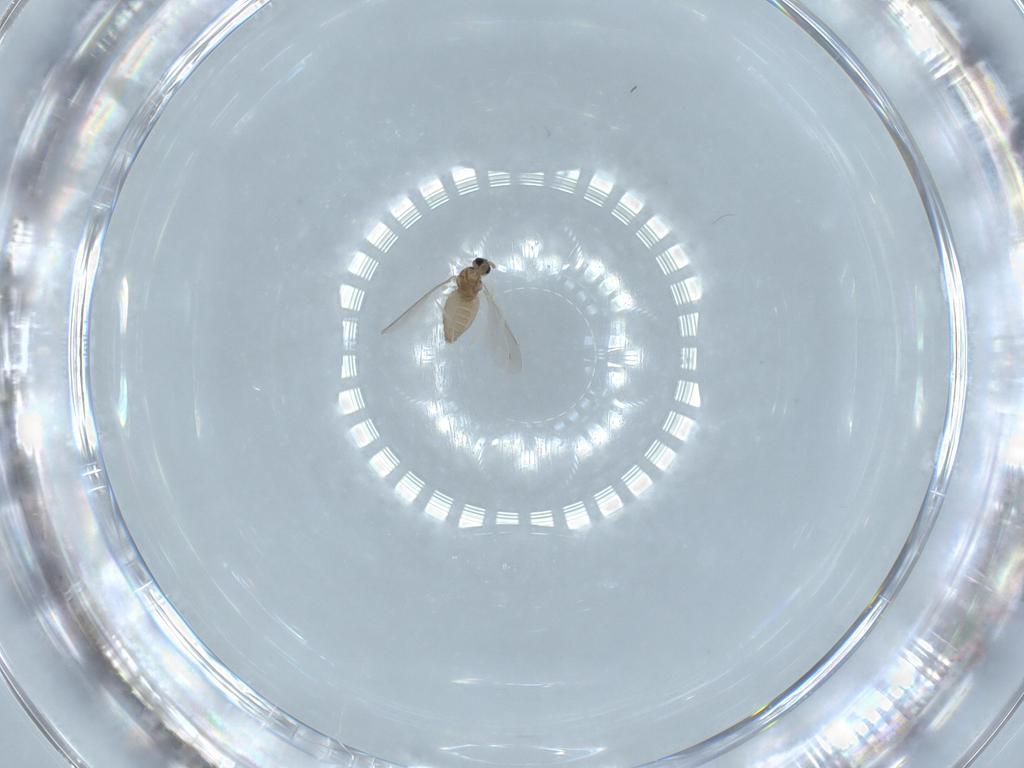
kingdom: Animalia
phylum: Arthropoda
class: Insecta
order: Diptera
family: Cecidomyiidae
